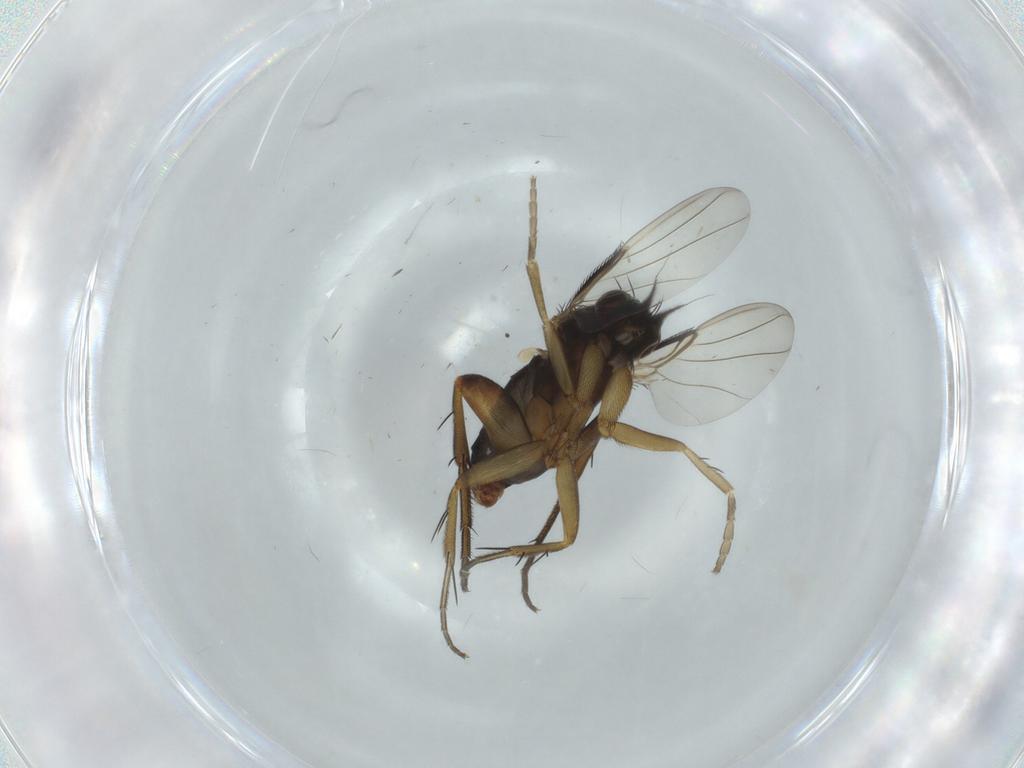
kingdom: Animalia
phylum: Arthropoda
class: Insecta
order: Diptera
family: Phoridae
